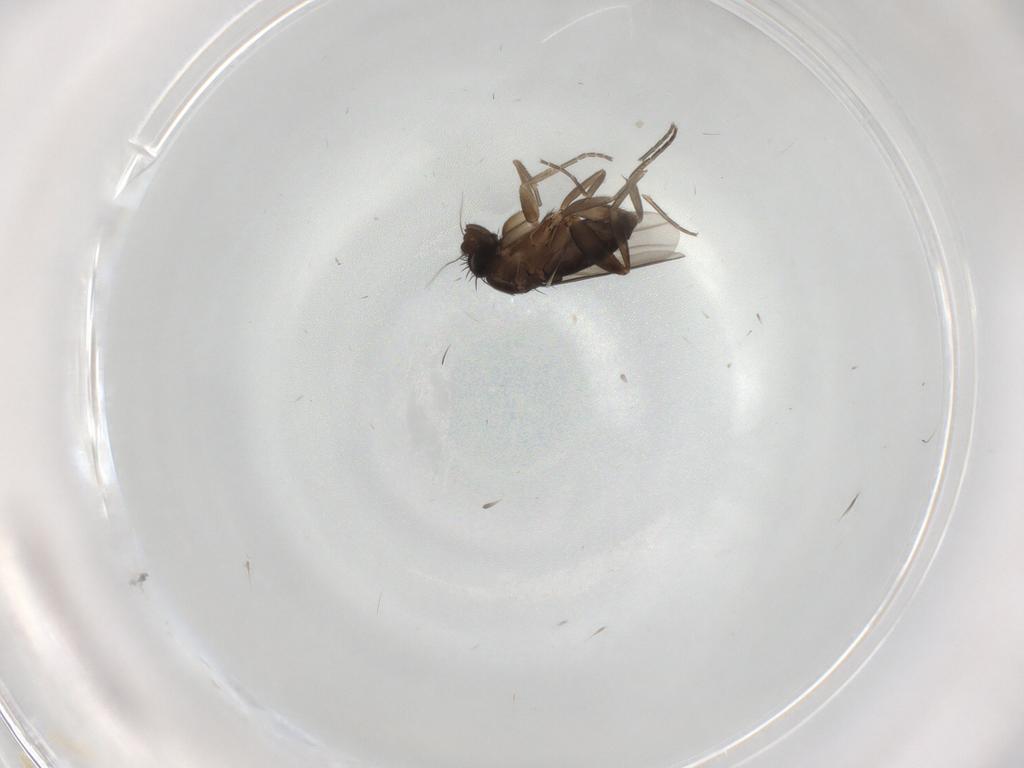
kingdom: Animalia
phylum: Arthropoda
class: Insecta
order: Diptera
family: Phoridae
